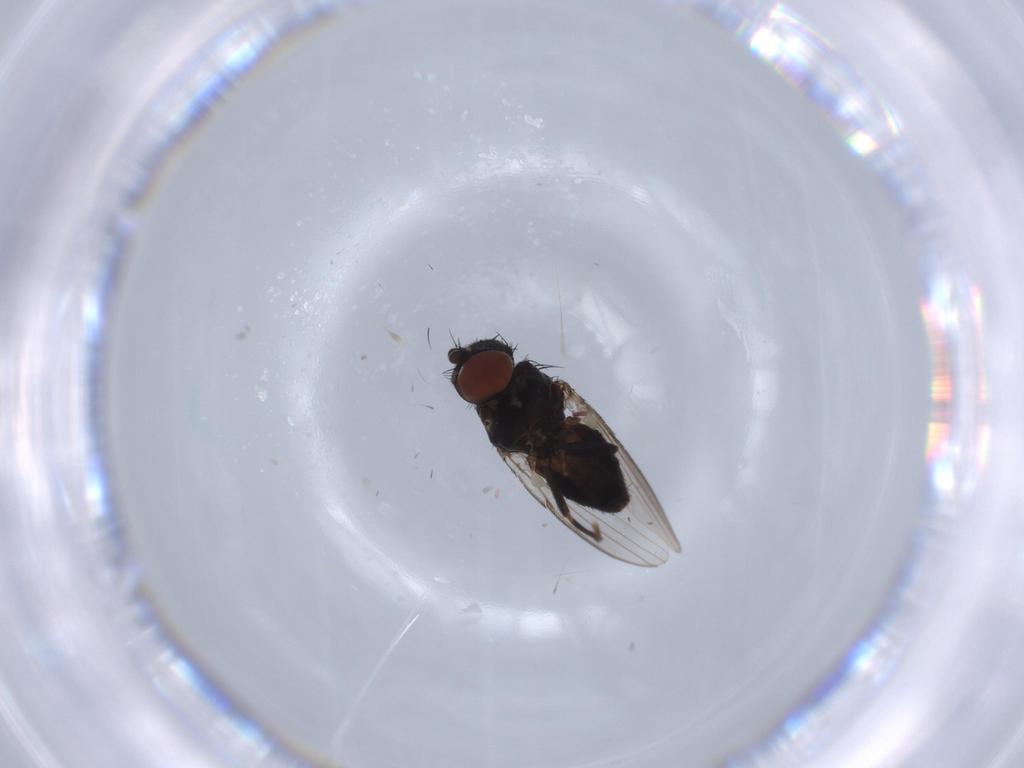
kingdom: Animalia
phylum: Arthropoda
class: Insecta
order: Diptera
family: Milichiidae
